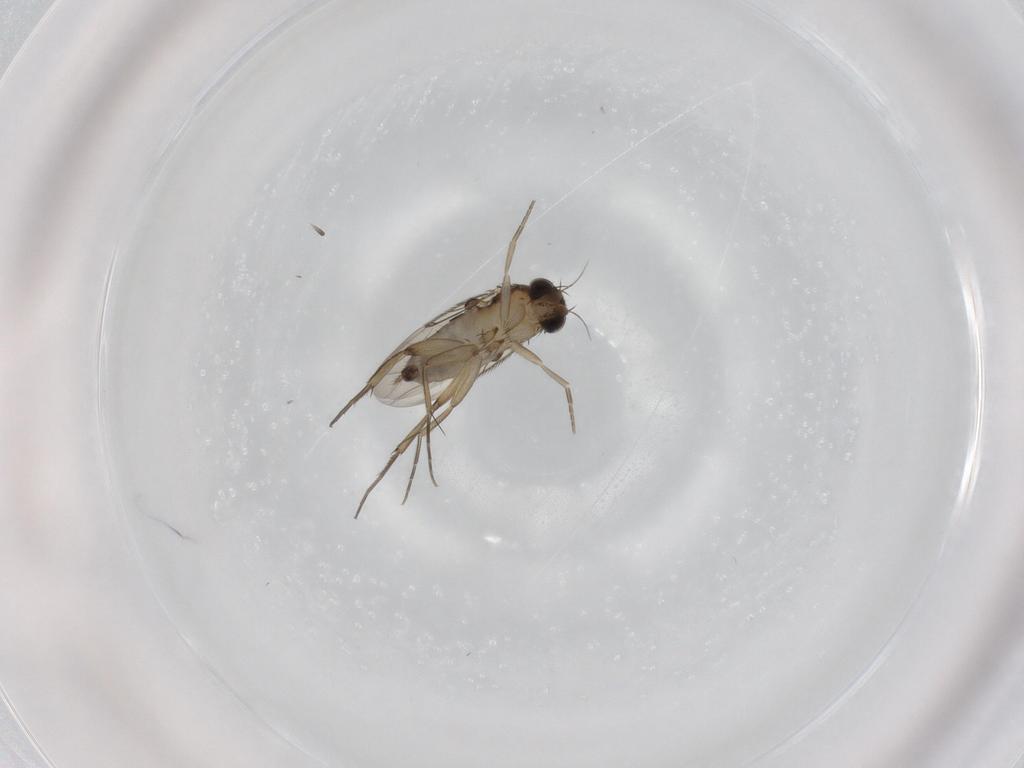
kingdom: Animalia
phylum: Arthropoda
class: Insecta
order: Diptera
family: Phoridae
